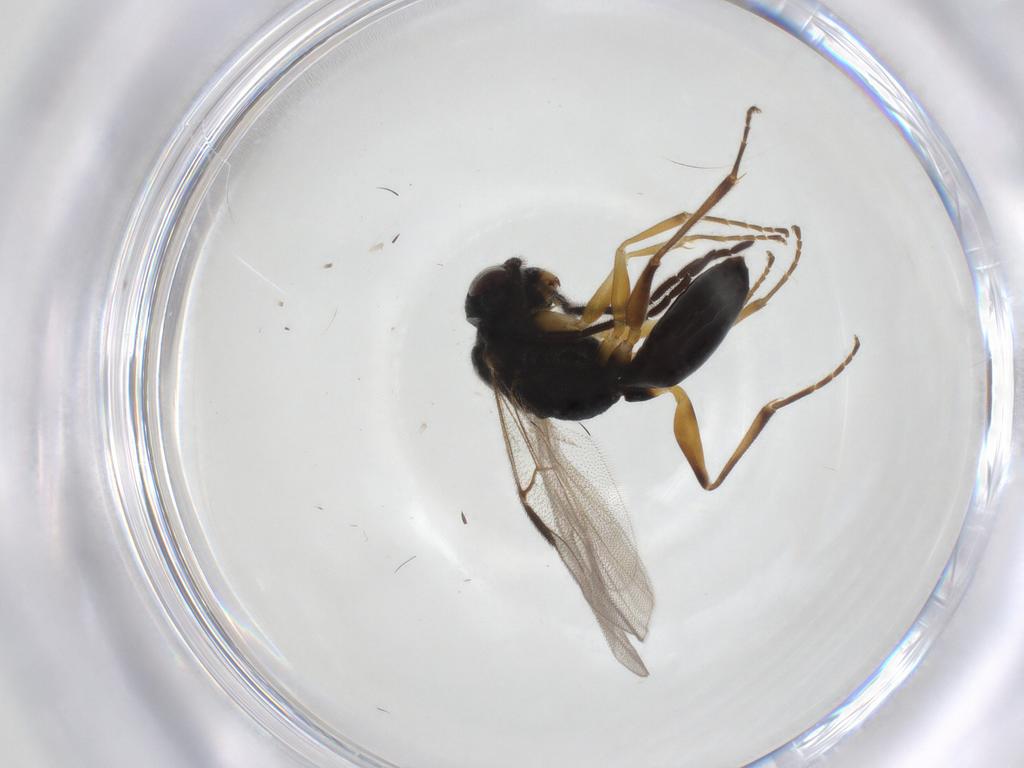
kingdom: Animalia
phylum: Arthropoda
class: Insecta
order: Hymenoptera
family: Dryinidae
